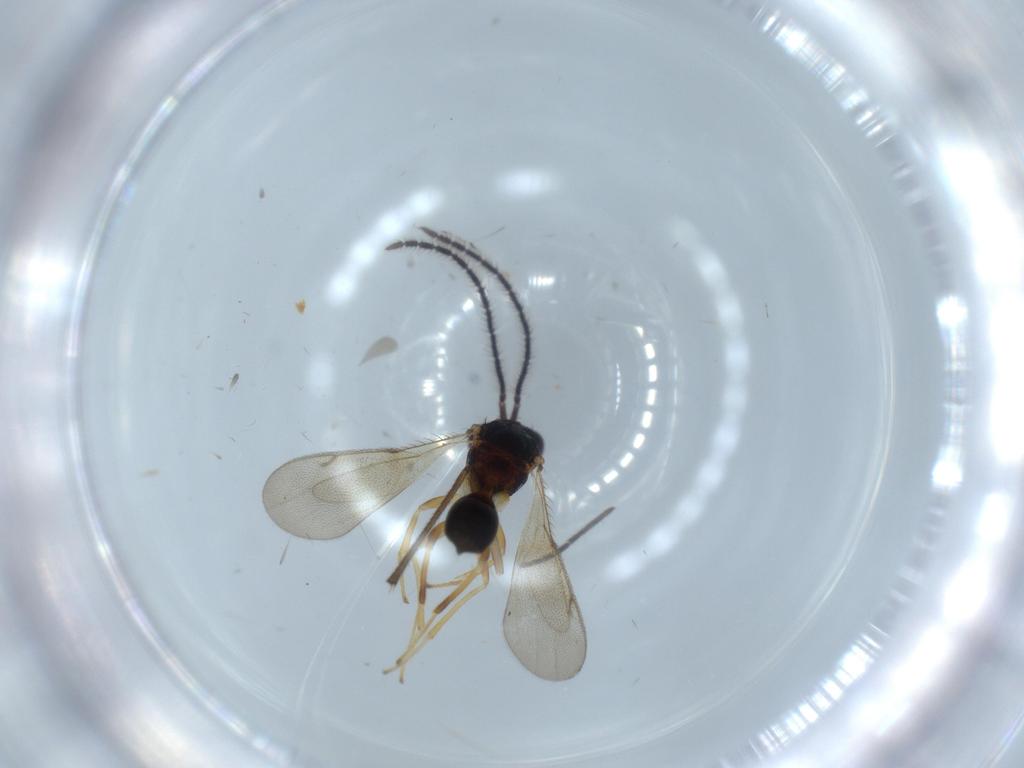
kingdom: Animalia
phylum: Arthropoda
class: Insecta
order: Hymenoptera
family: Diparidae
